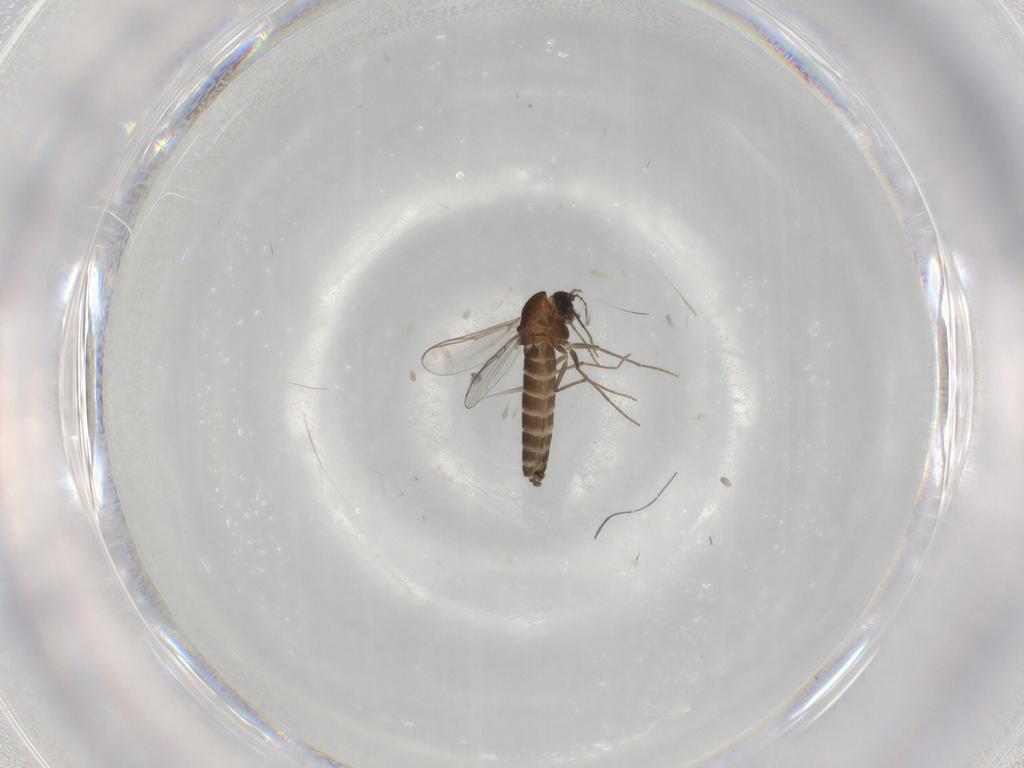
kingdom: Animalia
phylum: Arthropoda
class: Insecta
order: Diptera
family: Chironomidae
